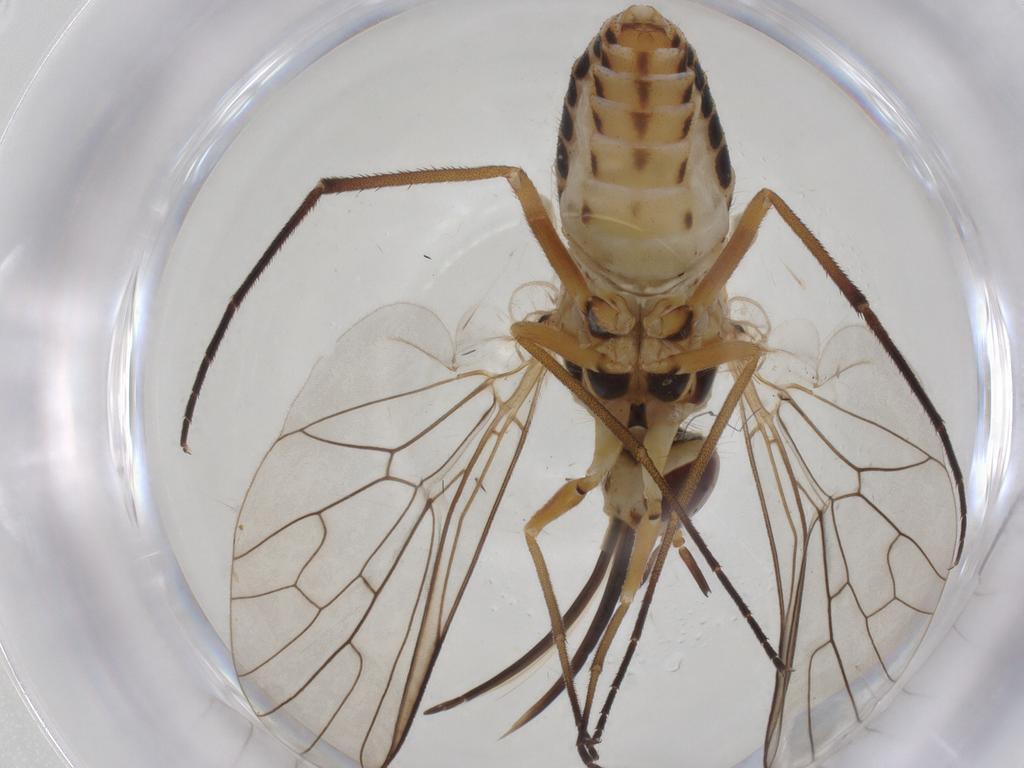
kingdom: Animalia
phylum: Arthropoda
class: Insecta
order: Diptera
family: Bombyliidae
